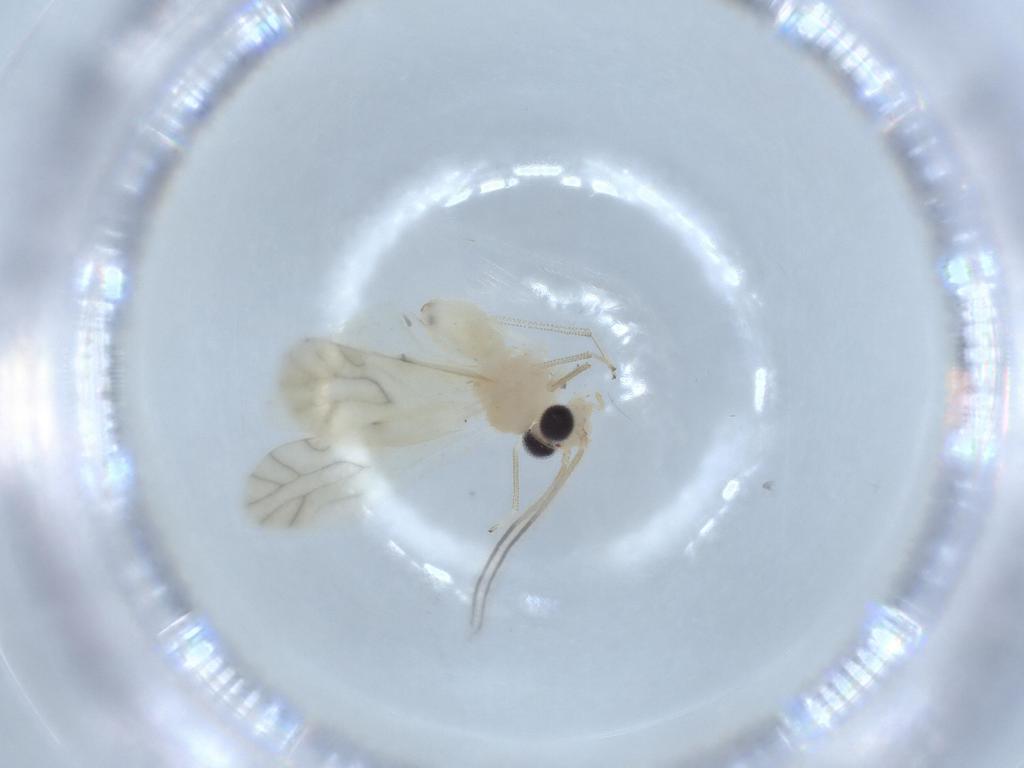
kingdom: Animalia
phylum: Arthropoda
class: Insecta
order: Psocodea
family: Caeciliusidae
